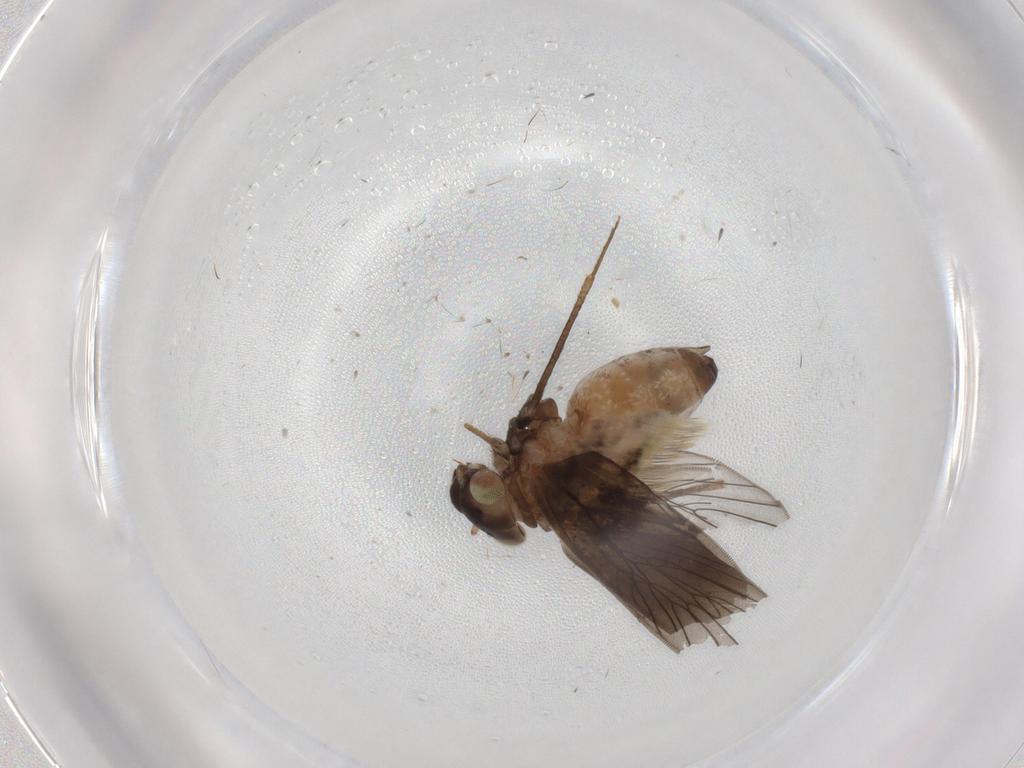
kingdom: Animalia
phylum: Arthropoda
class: Insecta
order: Psocodea
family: Lepidopsocidae
